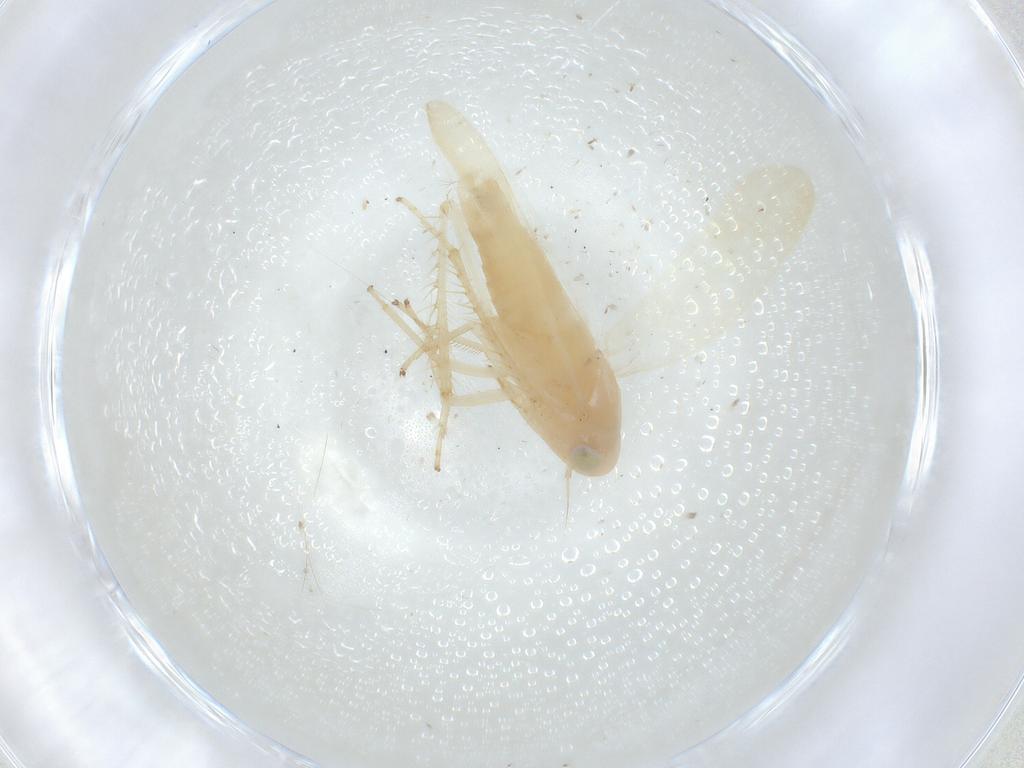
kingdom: Animalia
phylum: Arthropoda
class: Insecta
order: Hemiptera
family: Cicadellidae
